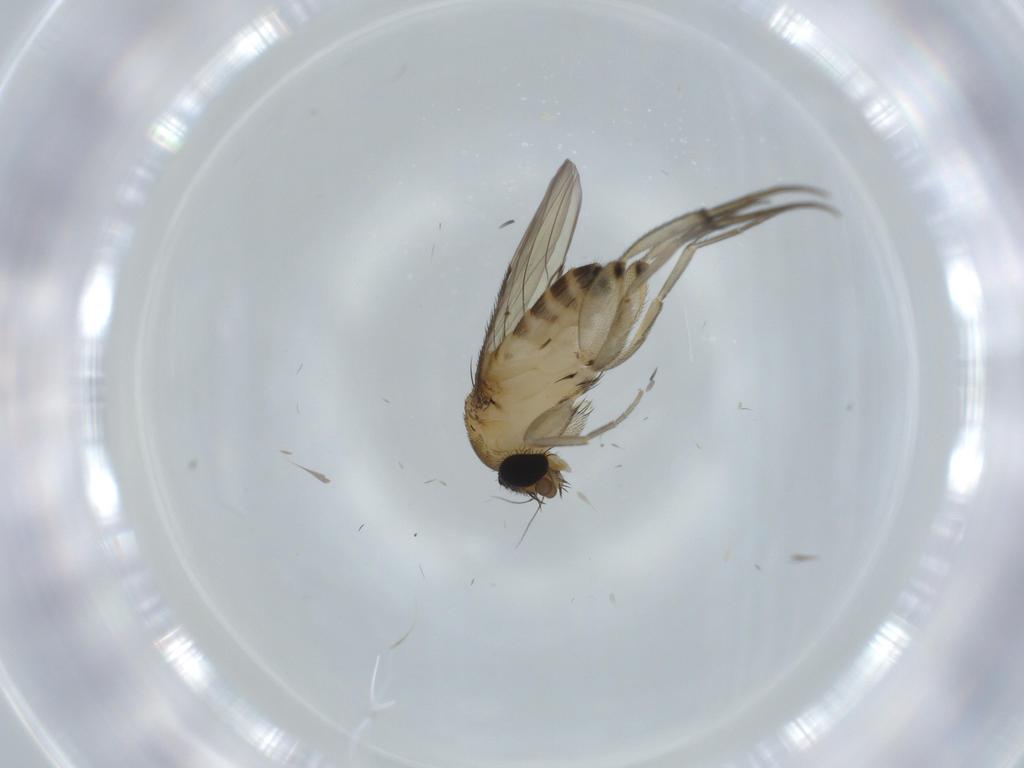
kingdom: Animalia
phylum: Arthropoda
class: Insecta
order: Diptera
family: Phoridae
